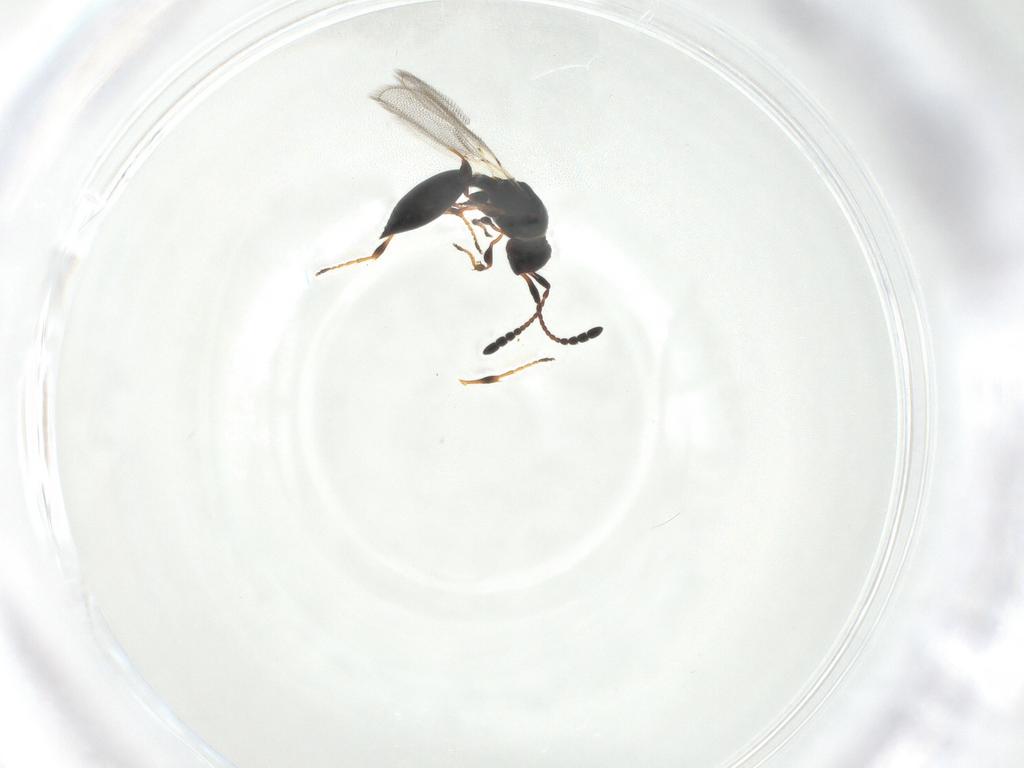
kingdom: Animalia
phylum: Arthropoda
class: Insecta
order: Hymenoptera
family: Diapriidae
